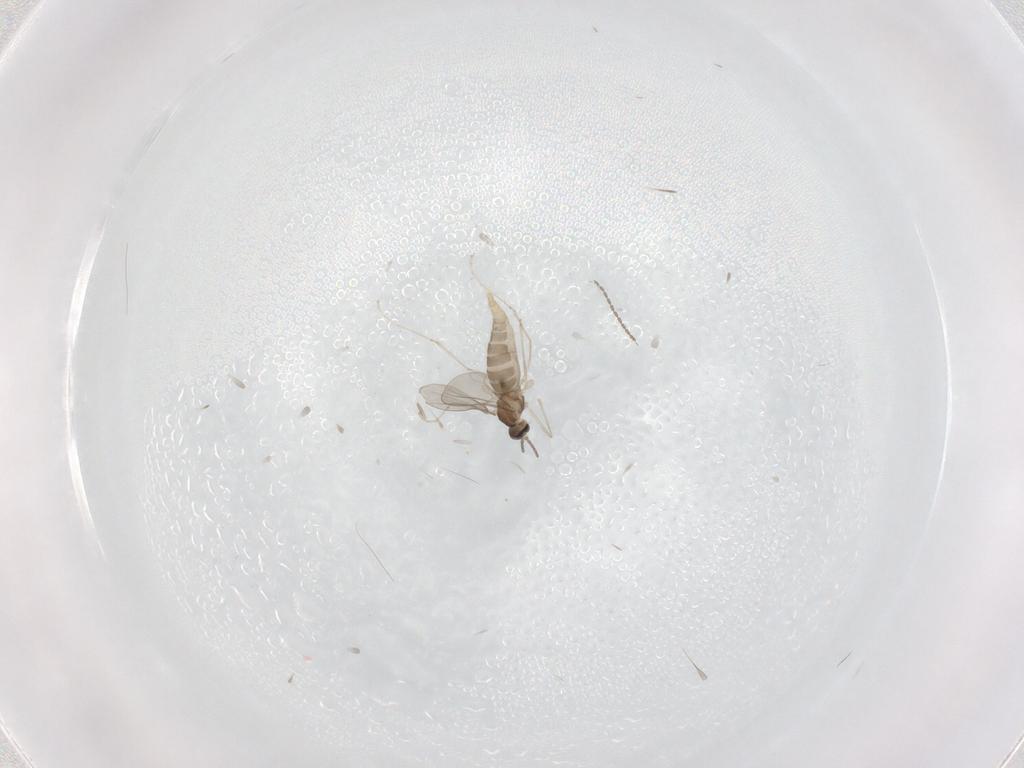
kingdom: Animalia
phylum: Arthropoda
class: Insecta
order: Diptera
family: Cecidomyiidae
